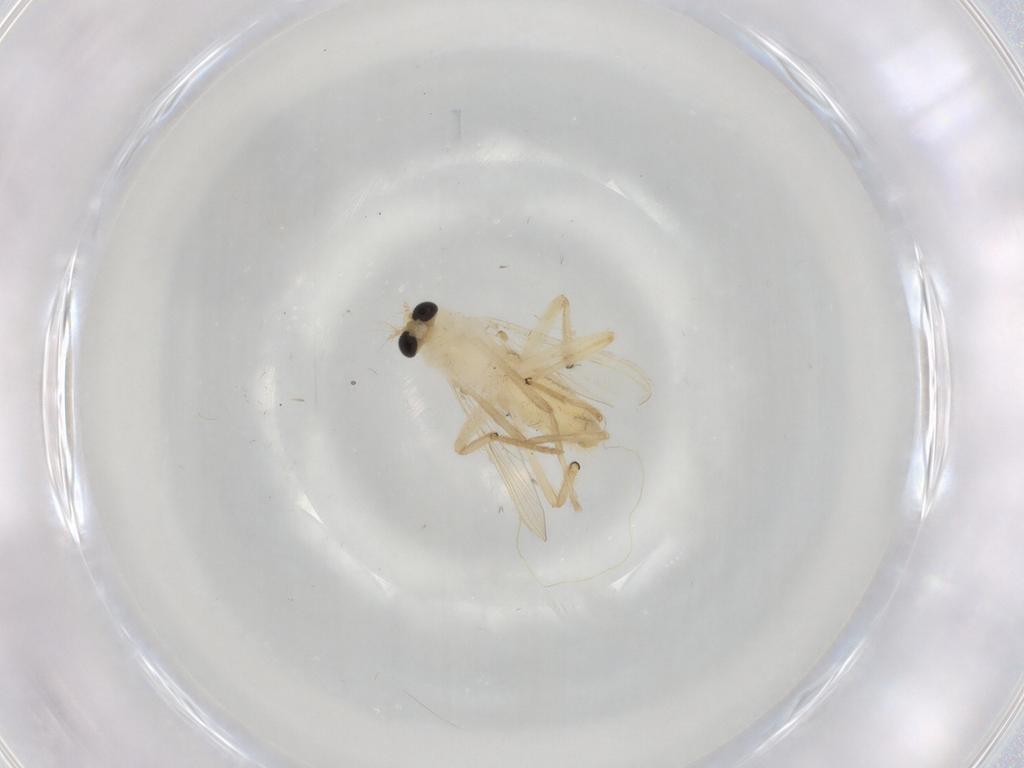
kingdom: Animalia
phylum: Arthropoda
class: Insecta
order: Diptera
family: Chironomidae
